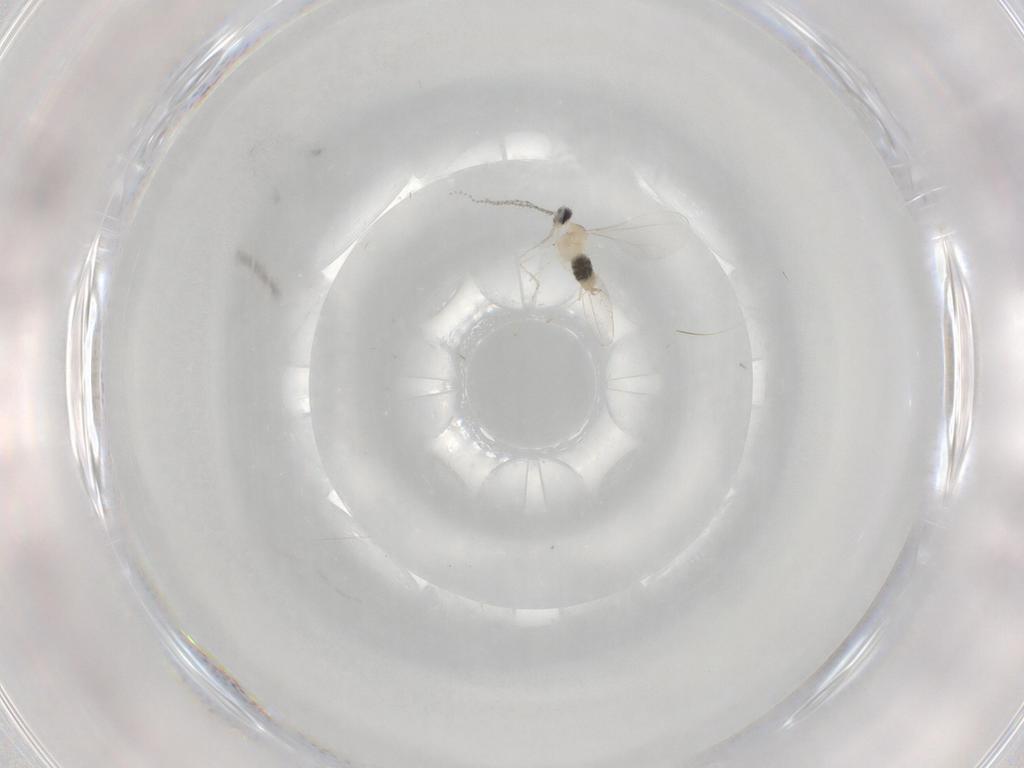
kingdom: Animalia
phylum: Arthropoda
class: Insecta
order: Diptera
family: Cecidomyiidae
